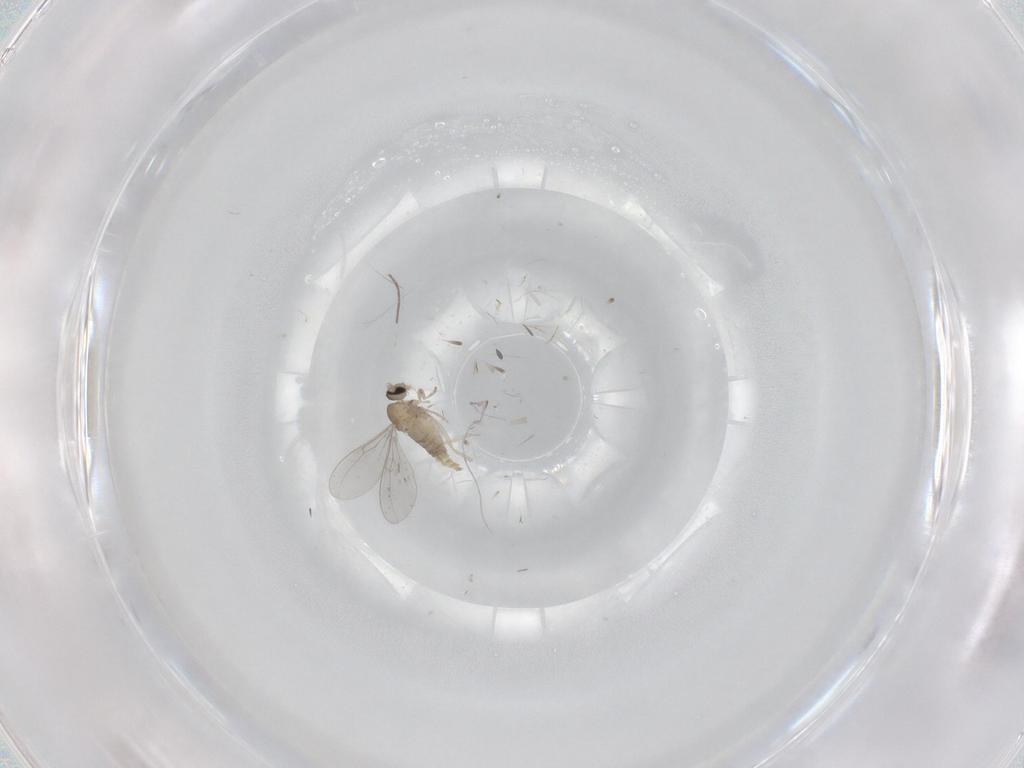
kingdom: Animalia
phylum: Arthropoda
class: Insecta
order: Diptera
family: Cecidomyiidae
